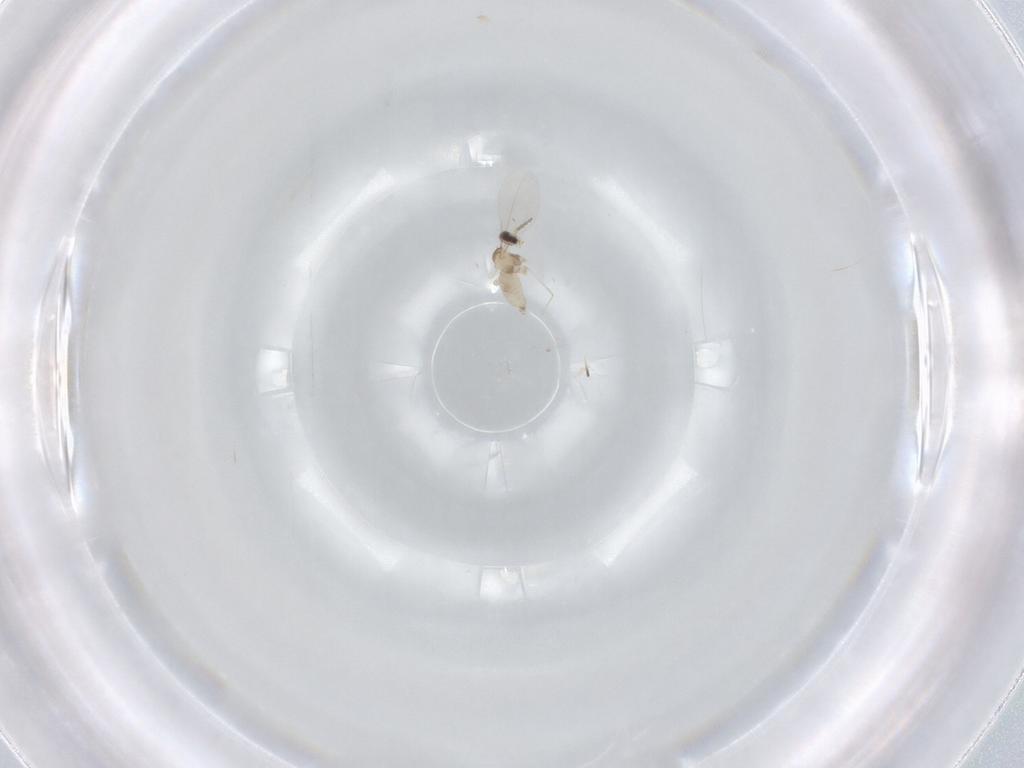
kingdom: Animalia
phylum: Arthropoda
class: Insecta
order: Diptera
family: Cecidomyiidae
